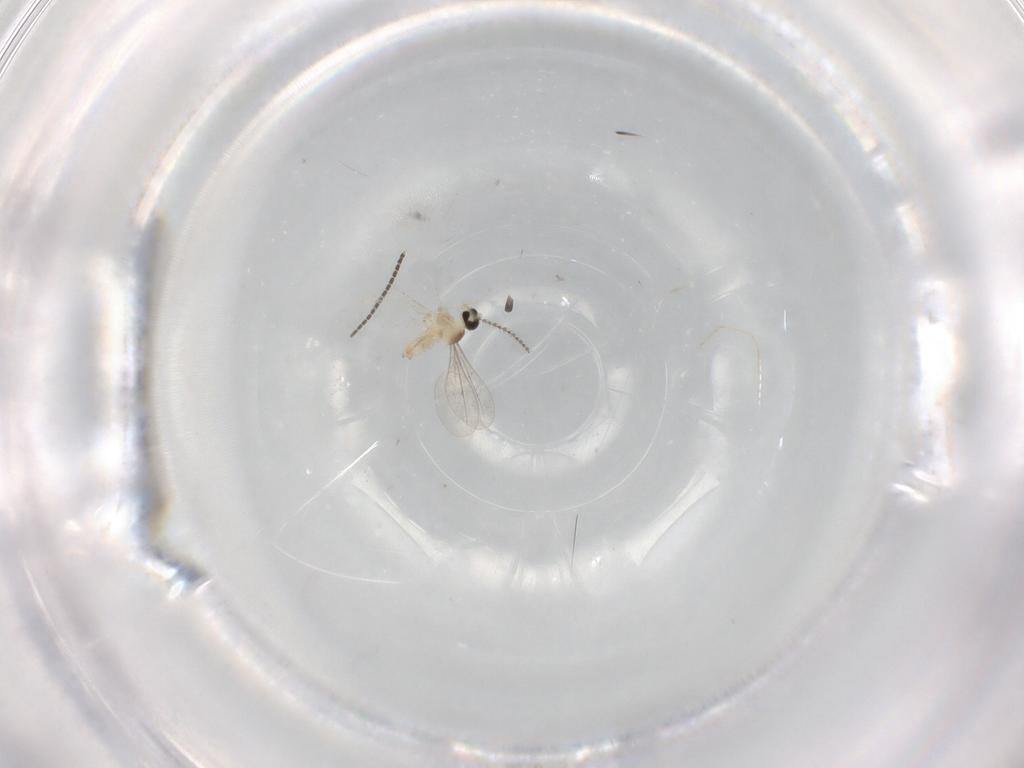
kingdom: Animalia
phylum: Arthropoda
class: Insecta
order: Diptera
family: Cecidomyiidae
